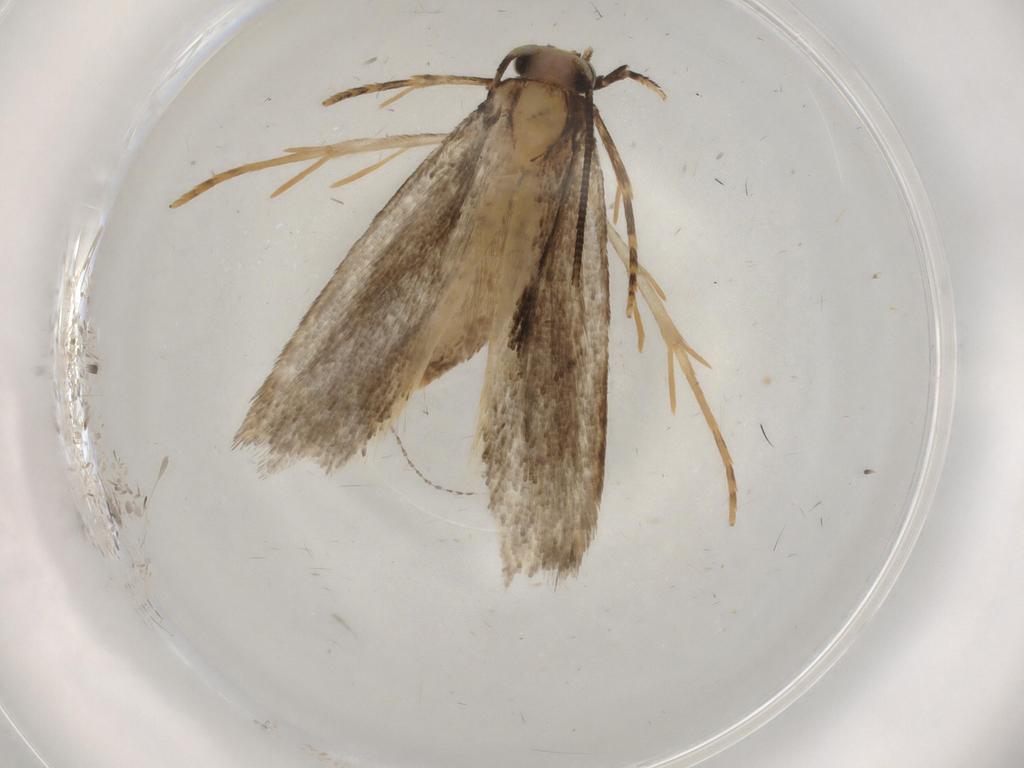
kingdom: Animalia
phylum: Arthropoda
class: Insecta
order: Lepidoptera
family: Tineidae
